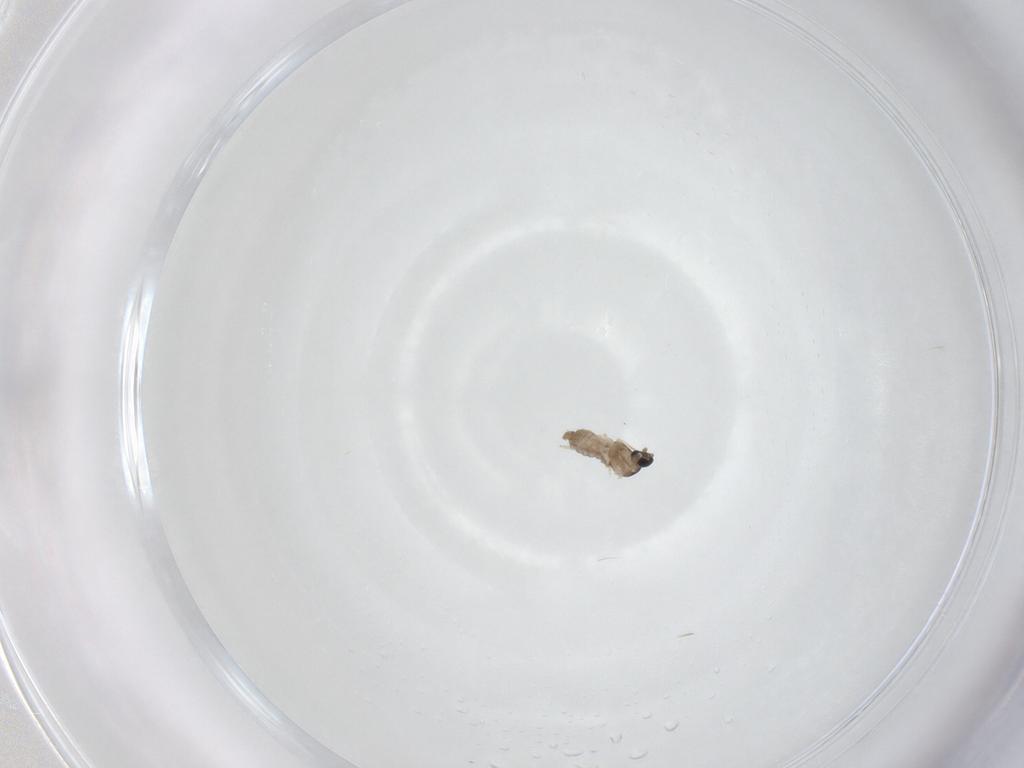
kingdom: Animalia
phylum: Arthropoda
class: Insecta
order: Diptera
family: Cecidomyiidae
